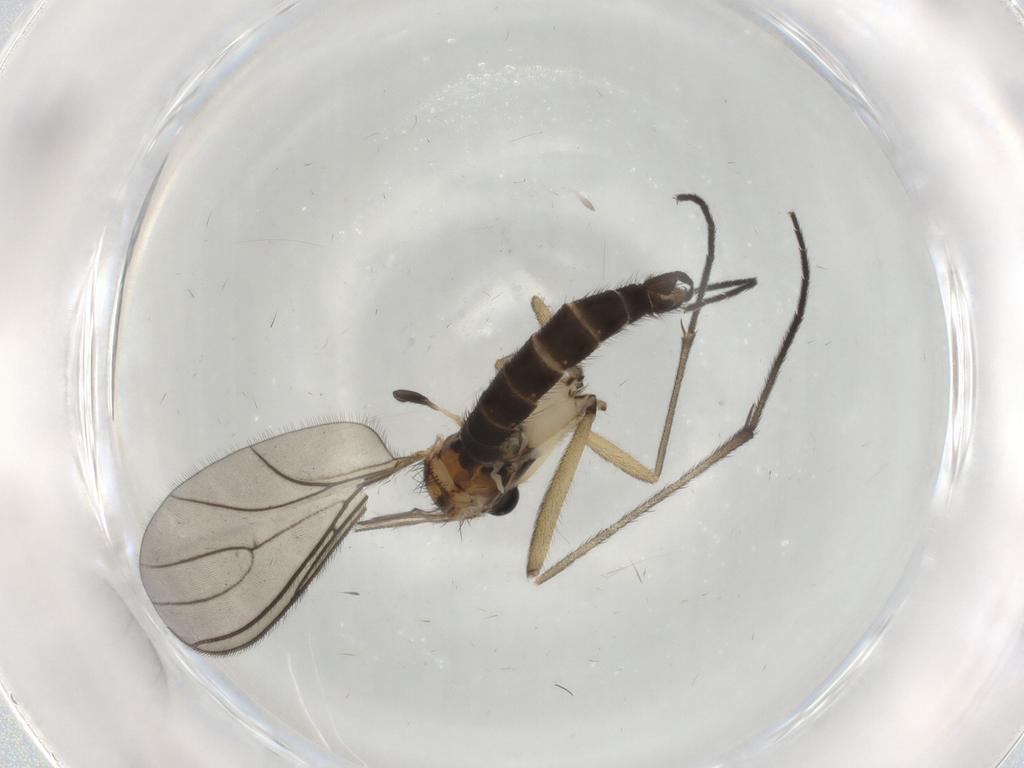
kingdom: Animalia
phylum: Arthropoda
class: Insecta
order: Diptera
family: Sciaridae
